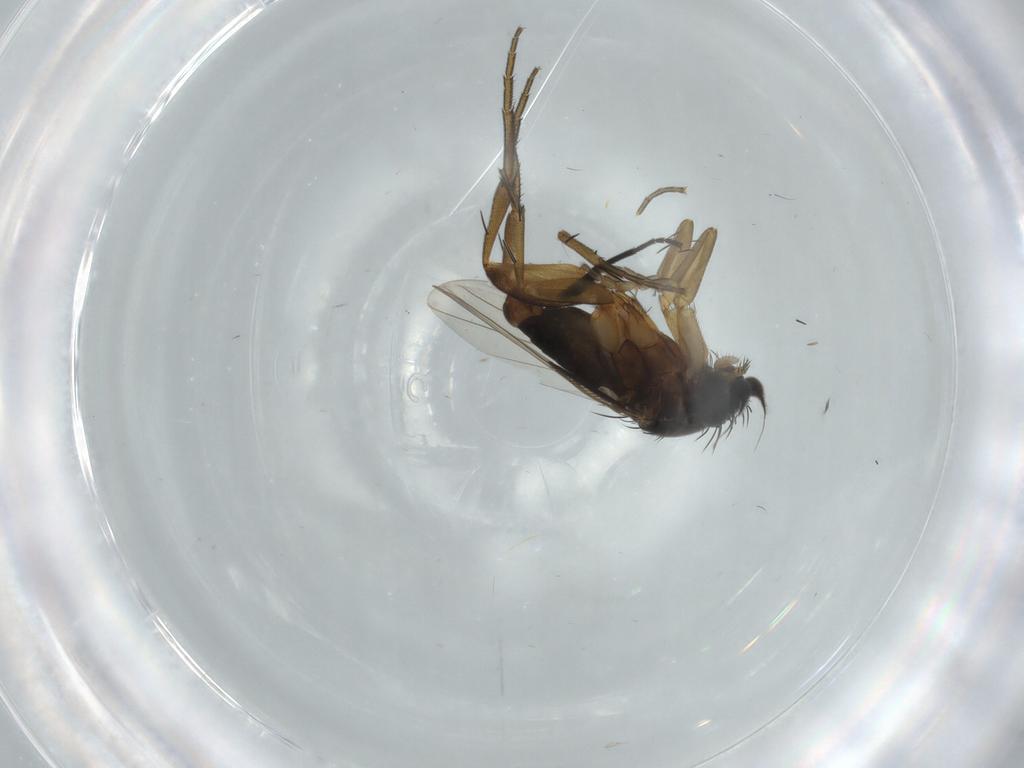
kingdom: Animalia
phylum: Arthropoda
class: Insecta
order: Diptera
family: Phoridae
